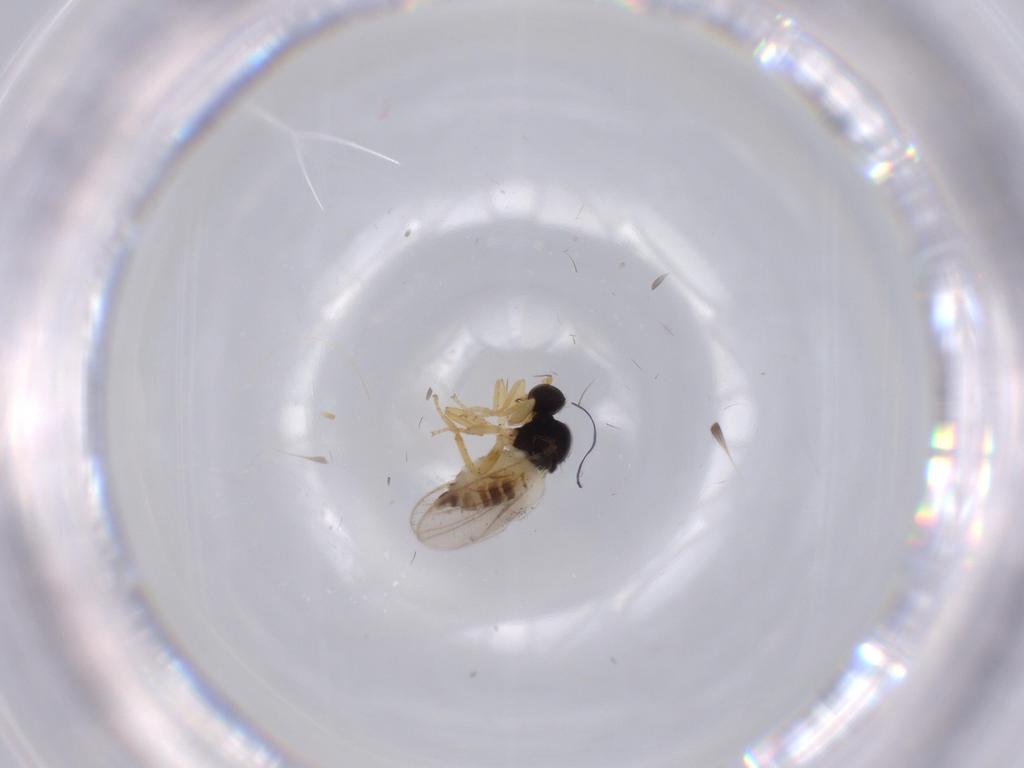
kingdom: Animalia
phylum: Arthropoda
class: Insecta
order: Diptera
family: Hybotidae
